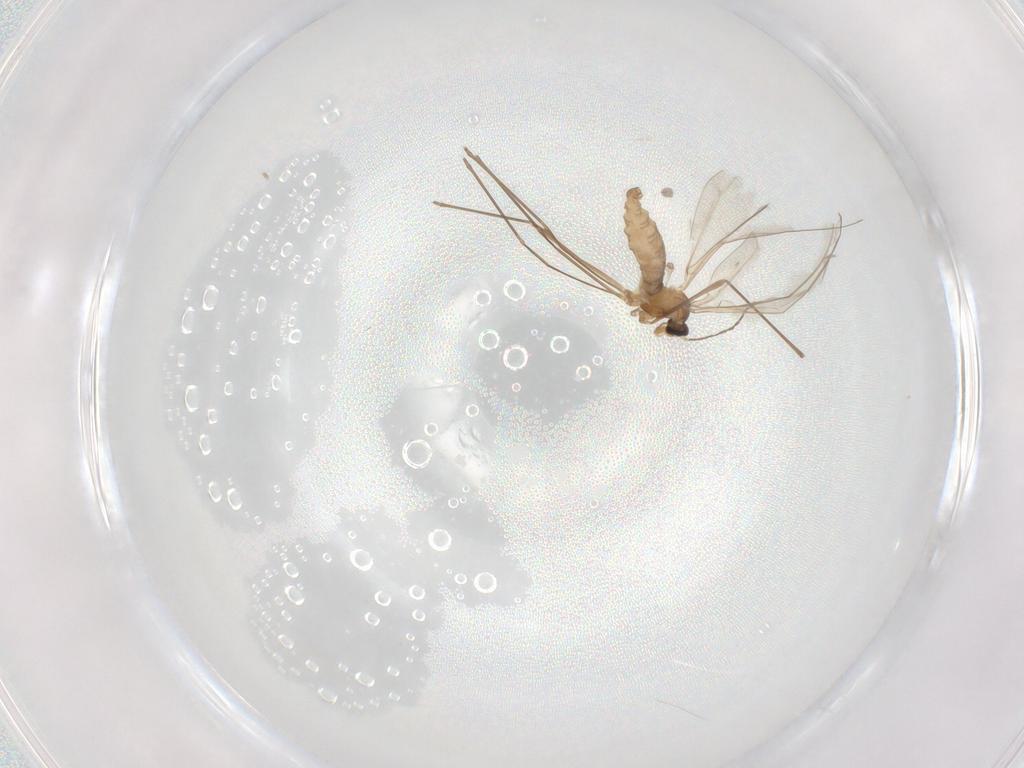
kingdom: Animalia
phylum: Arthropoda
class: Insecta
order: Diptera
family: Cecidomyiidae
